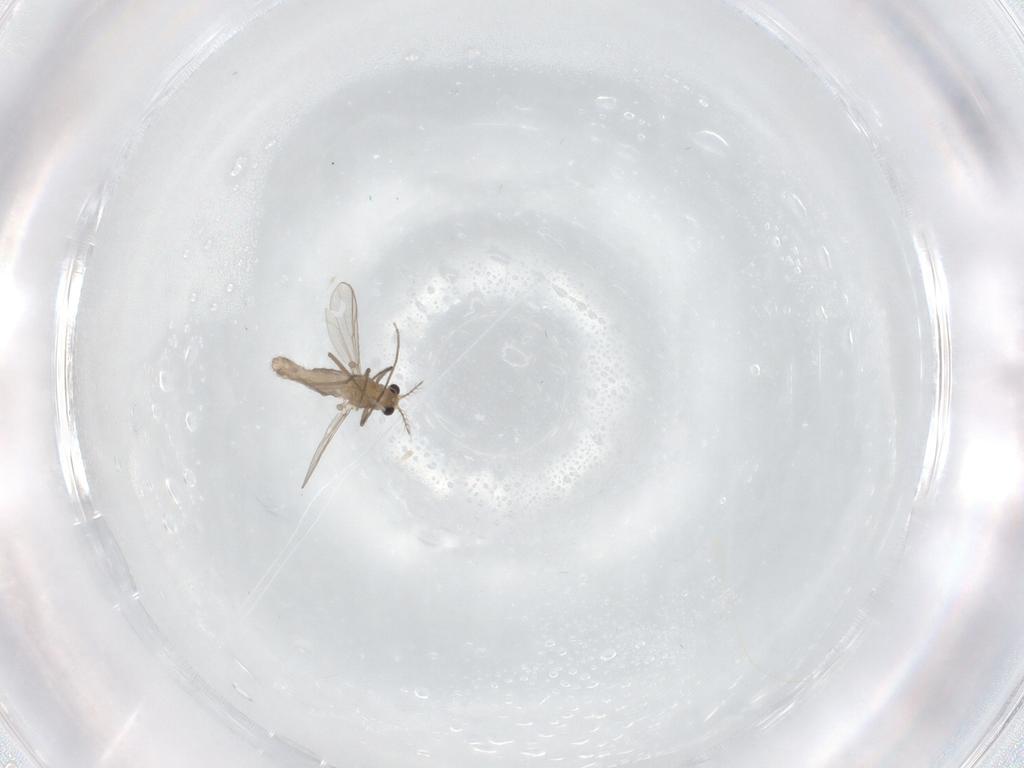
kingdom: Animalia
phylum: Arthropoda
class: Insecta
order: Diptera
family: Chironomidae
